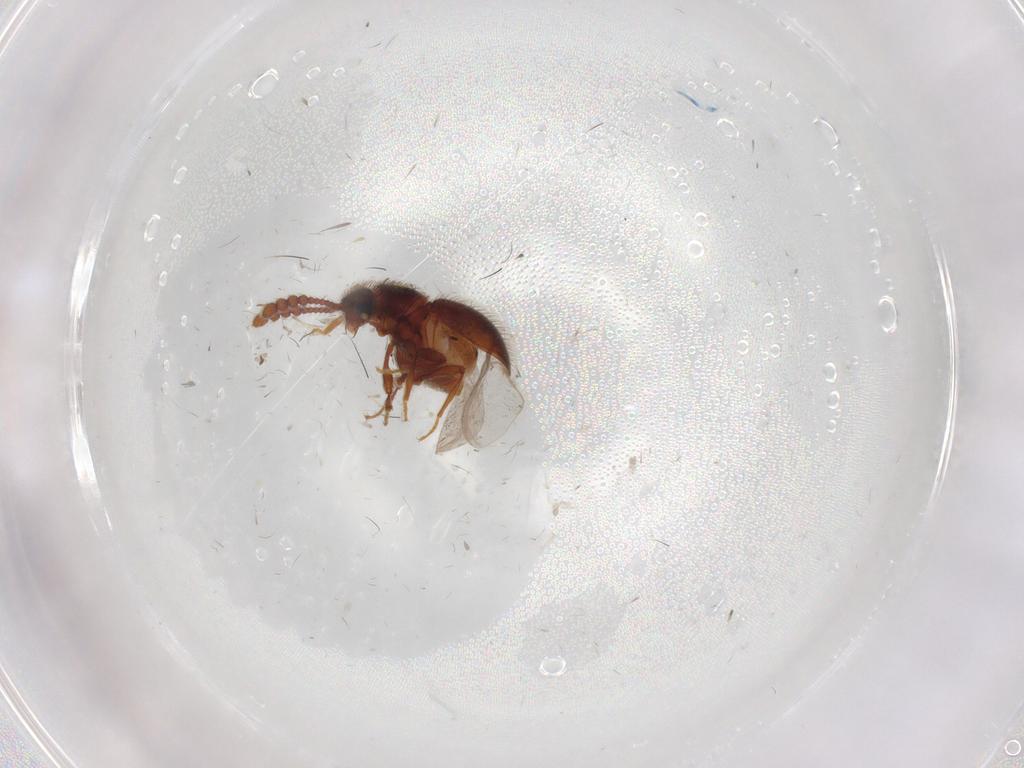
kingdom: Animalia
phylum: Arthropoda
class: Insecta
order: Coleoptera
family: Staphylinidae
